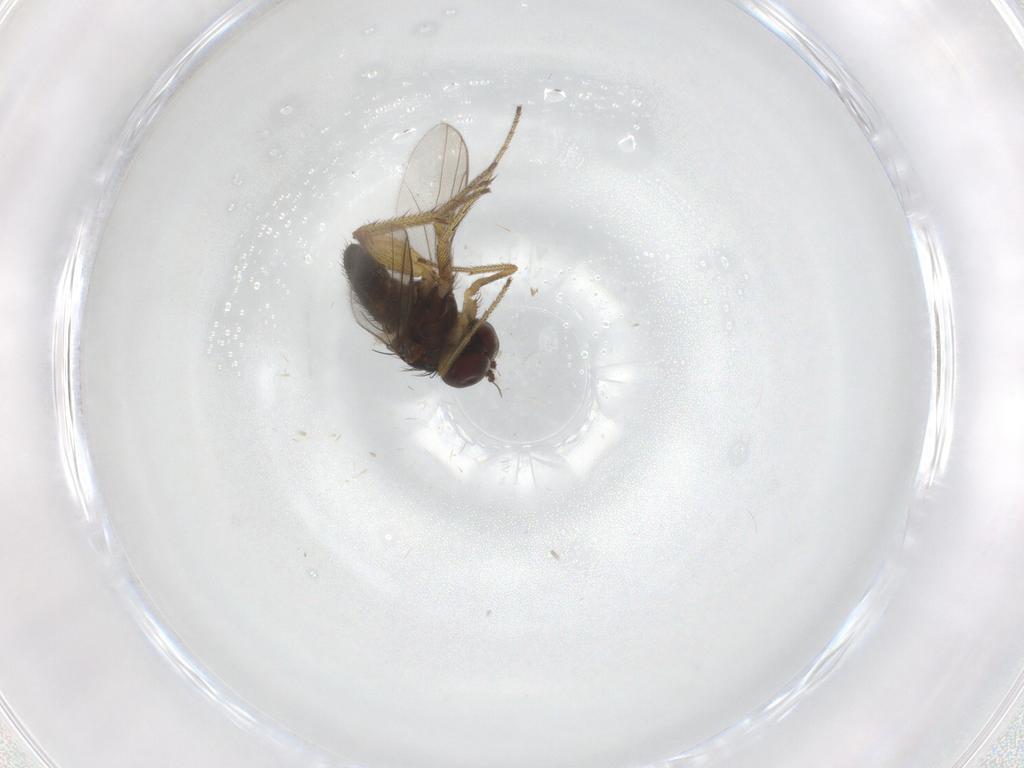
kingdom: Animalia
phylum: Arthropoda
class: Insecta
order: Diptera
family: Dolichopodidae
